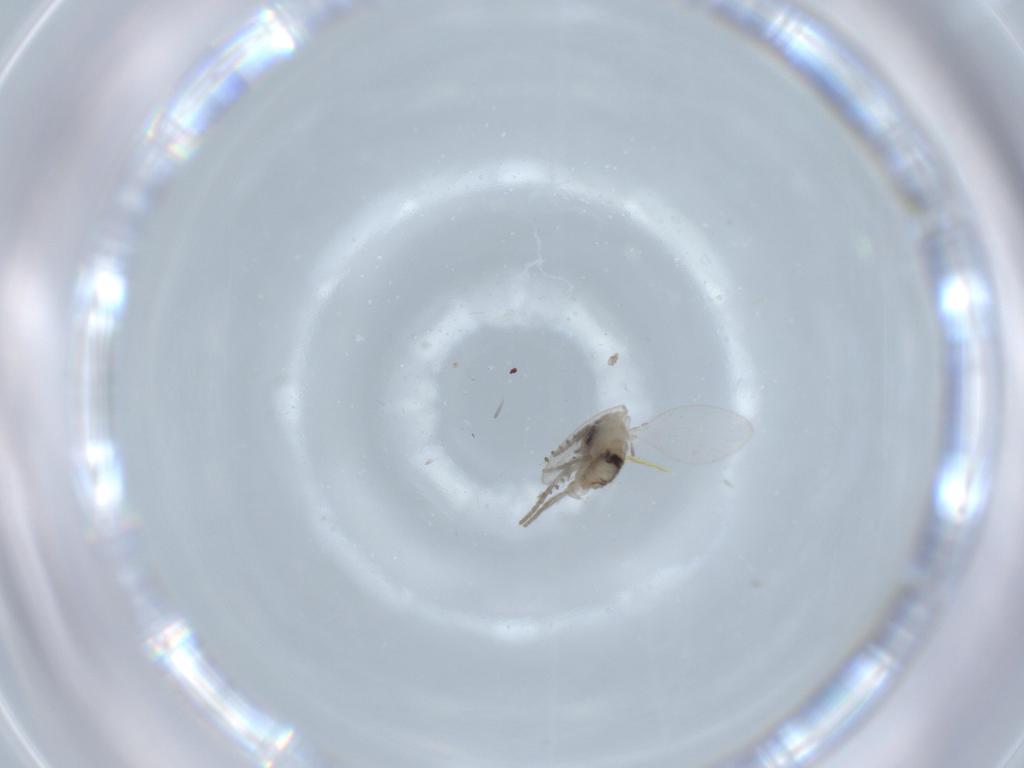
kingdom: Animalia
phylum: Arthropoda
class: Insecta
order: Diptera
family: Psychodidae
